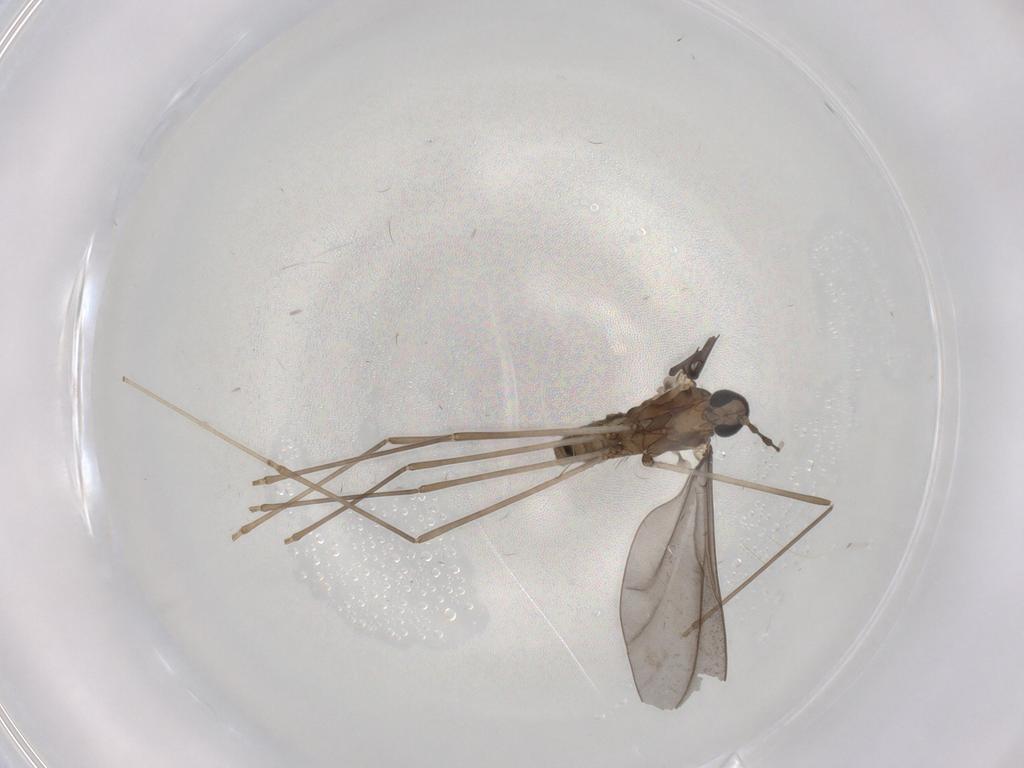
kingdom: Animalia
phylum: Arthropoda
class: Insecta
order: Diptera
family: Cecidomyiidae
